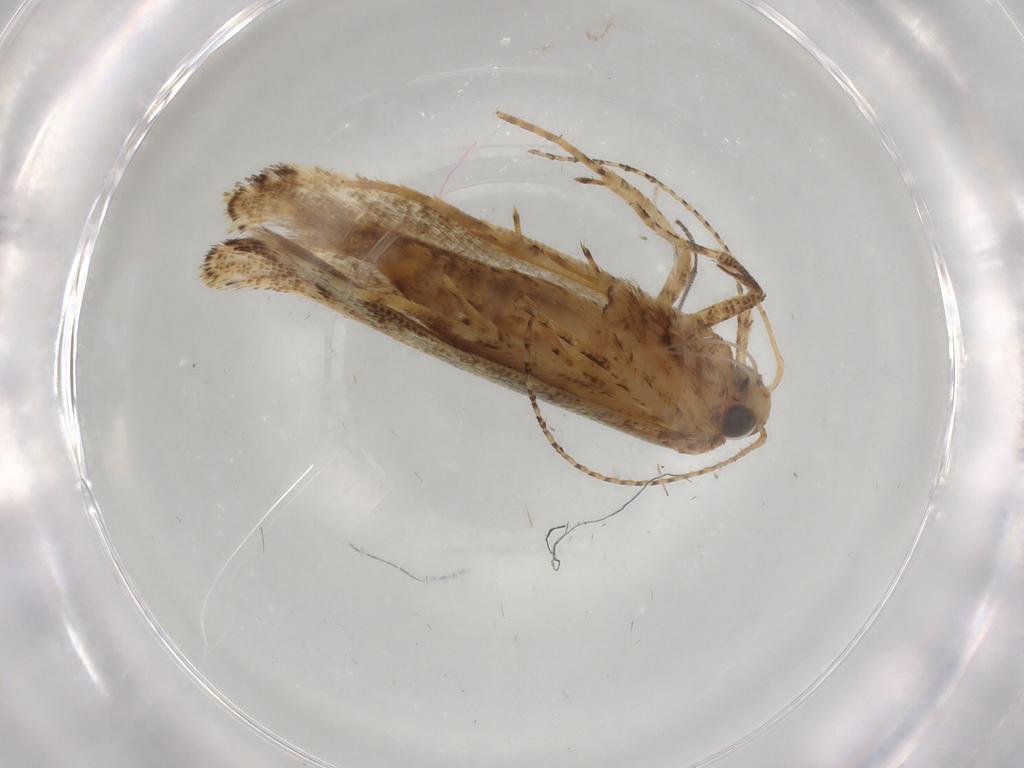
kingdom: Animalia
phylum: Arthropoda
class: Insecta
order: Lepidoptera
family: Gelechiidae
